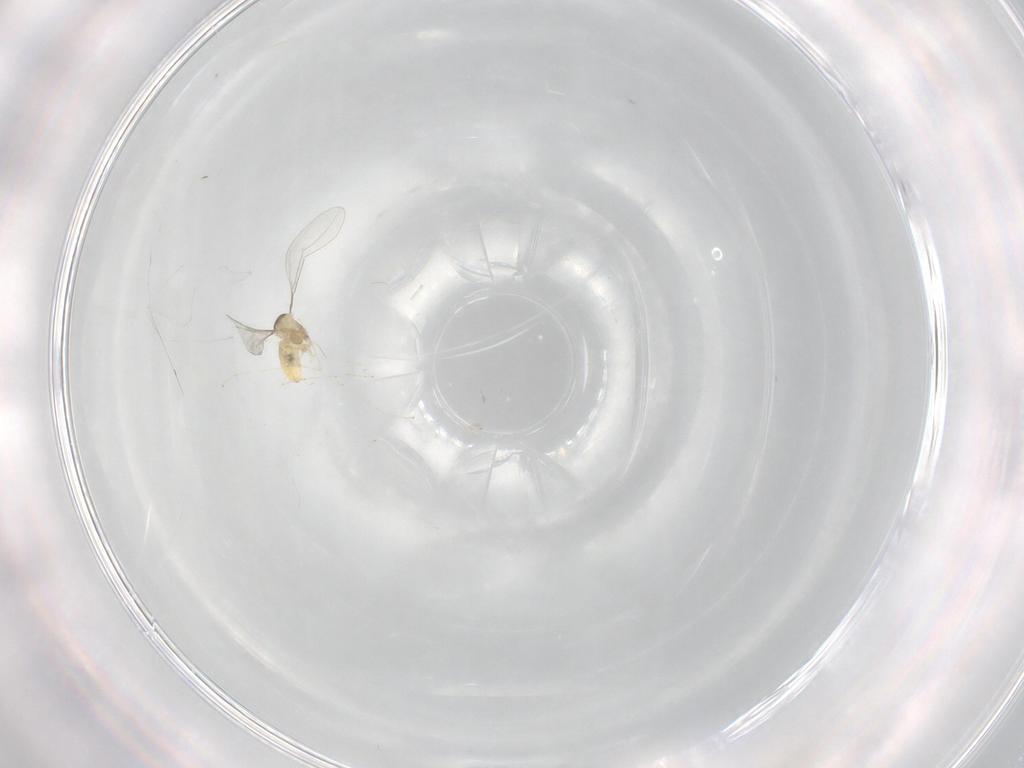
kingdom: Animalia
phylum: Arthropoda
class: Insecta
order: Diptera
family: Cecidomyiidae
